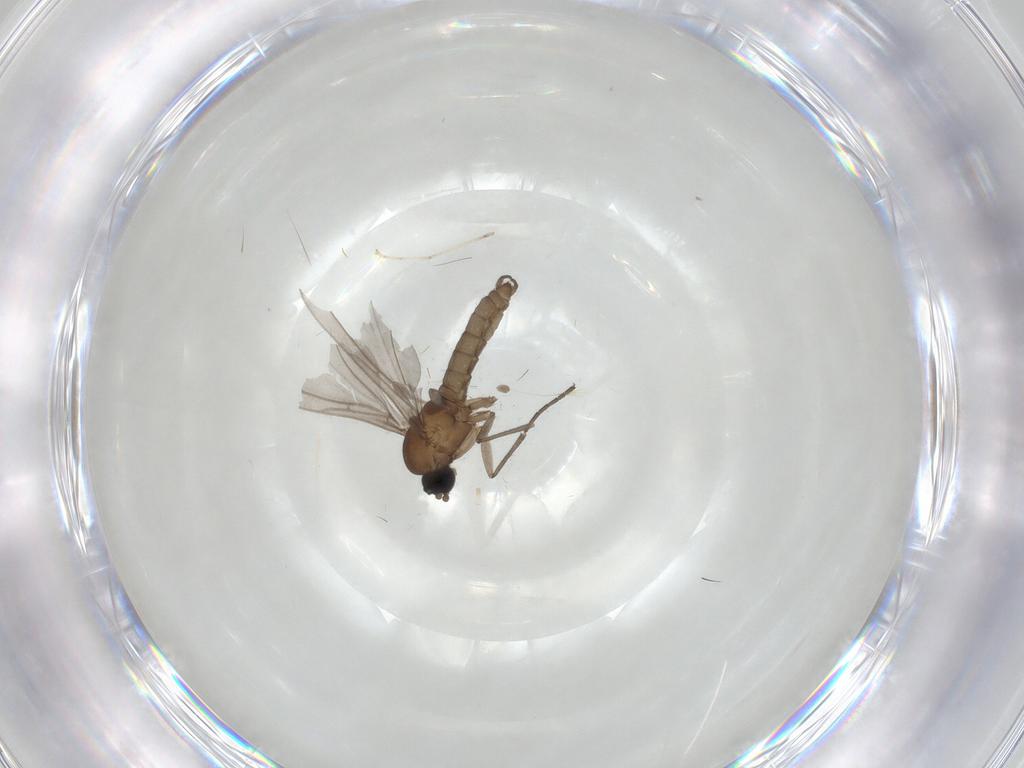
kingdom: Animalia
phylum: Arthropoda
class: Insecta
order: Diptera
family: Cecidomyiidae
